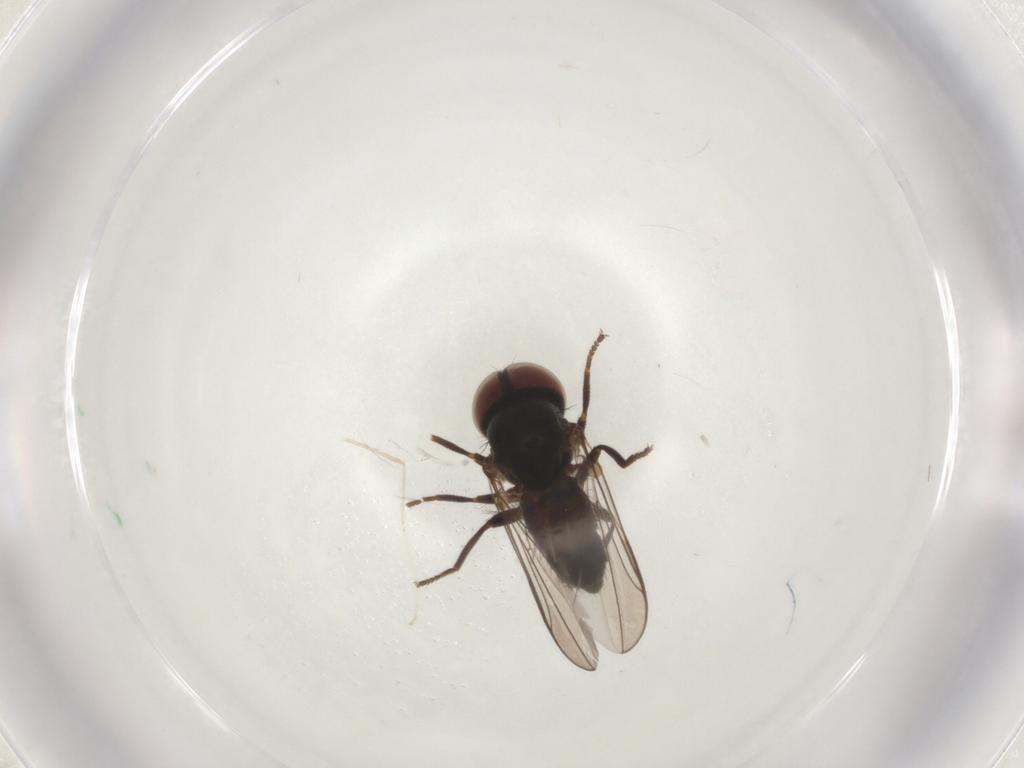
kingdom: Animalia
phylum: Arthropoda
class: Insecta
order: Diptera
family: Pipunculidae
